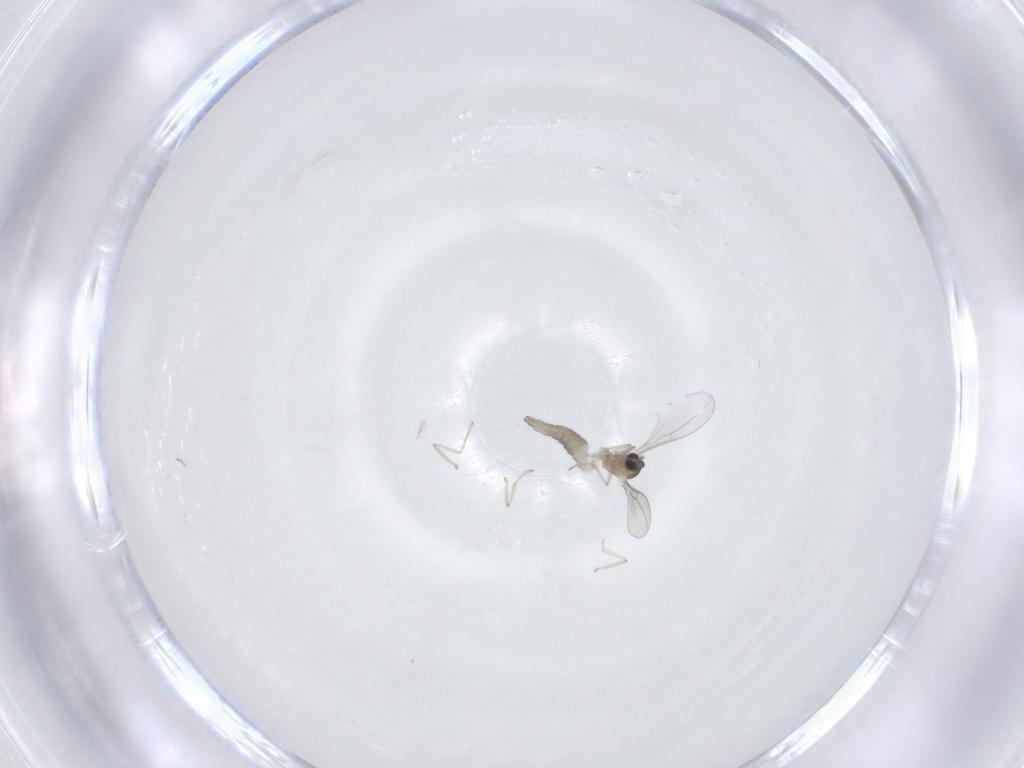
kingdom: Animalia
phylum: Arthropoda
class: Insecta
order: Diptera
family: Cecidomyiidae
